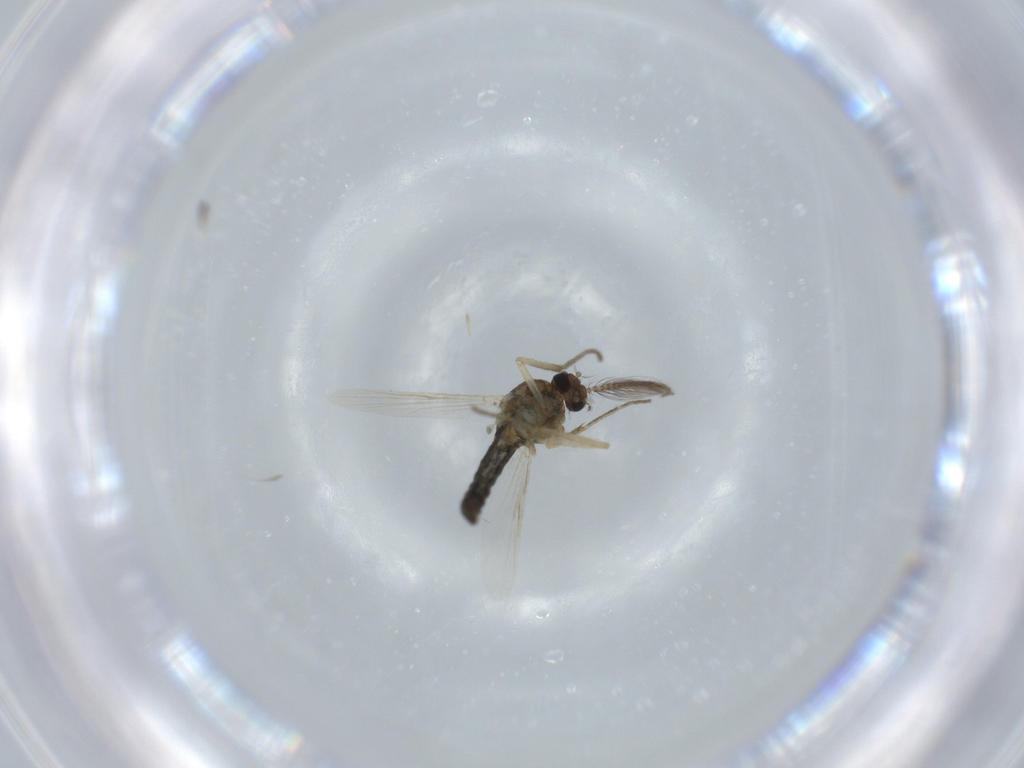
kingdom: Animalia
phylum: Arthropoda
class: Insecta
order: Diptera
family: Ceratopogonidae
